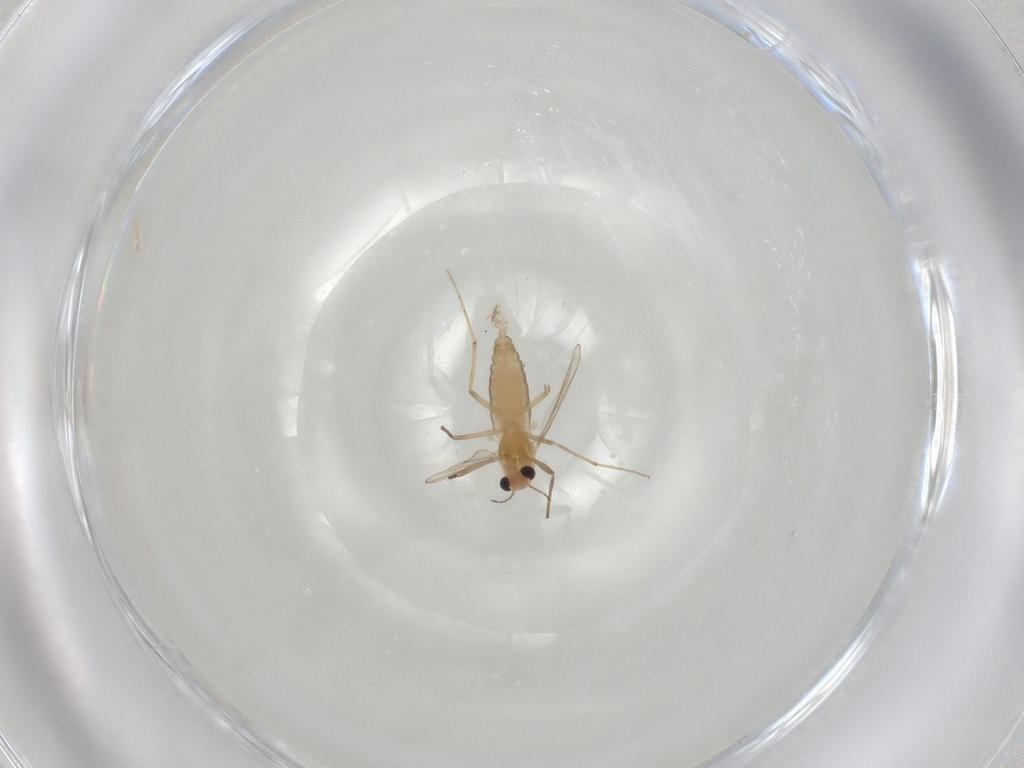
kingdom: Animalia
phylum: Arthropoda
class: Insecta
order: Diptera
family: Chironomidae
